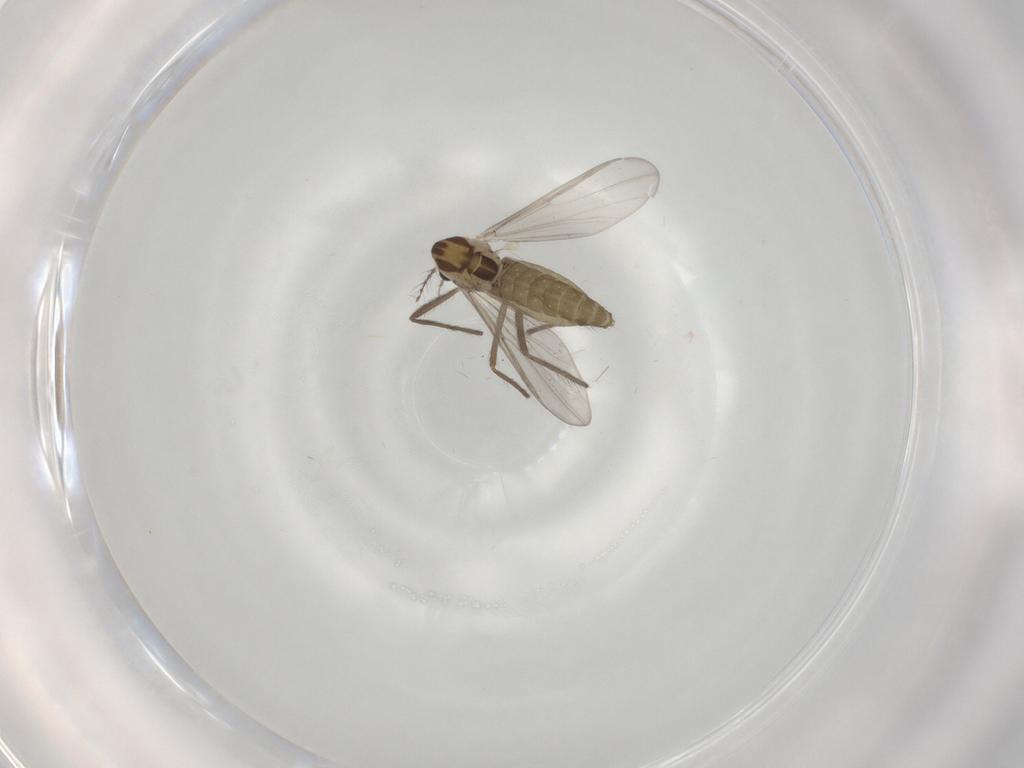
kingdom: Animalia
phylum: Arthropoda
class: Insecta
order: Diptera
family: Chironomidae
